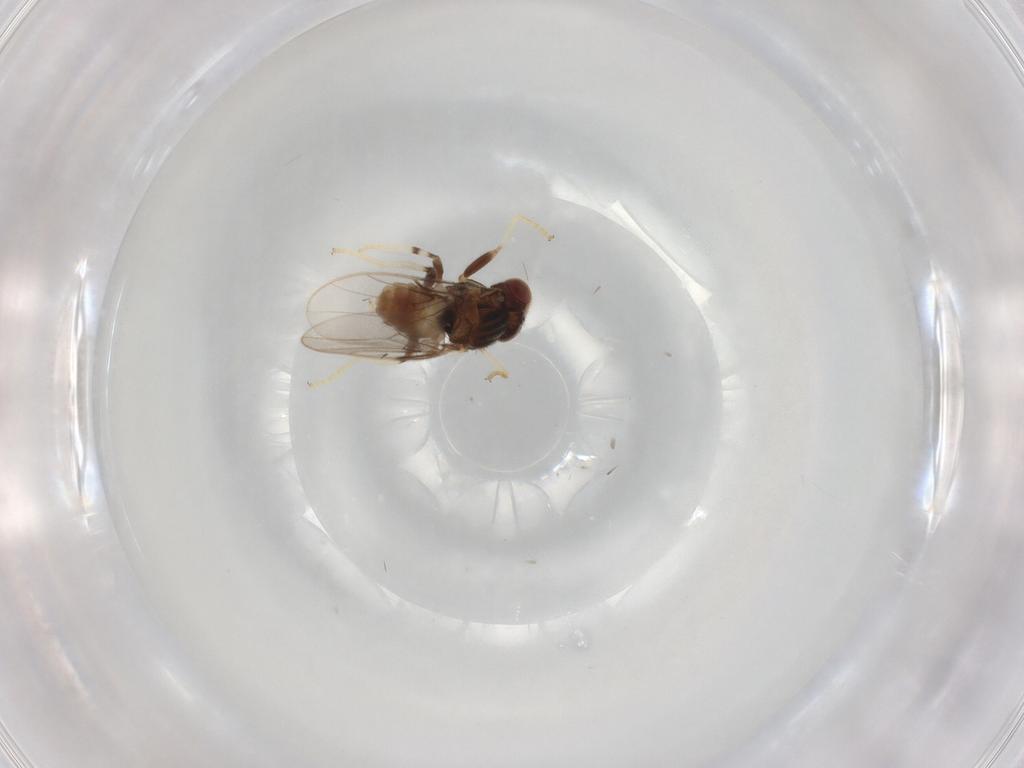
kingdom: Animalia
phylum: Arthropoda
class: Insecta
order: Diptera
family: Chloropidae
